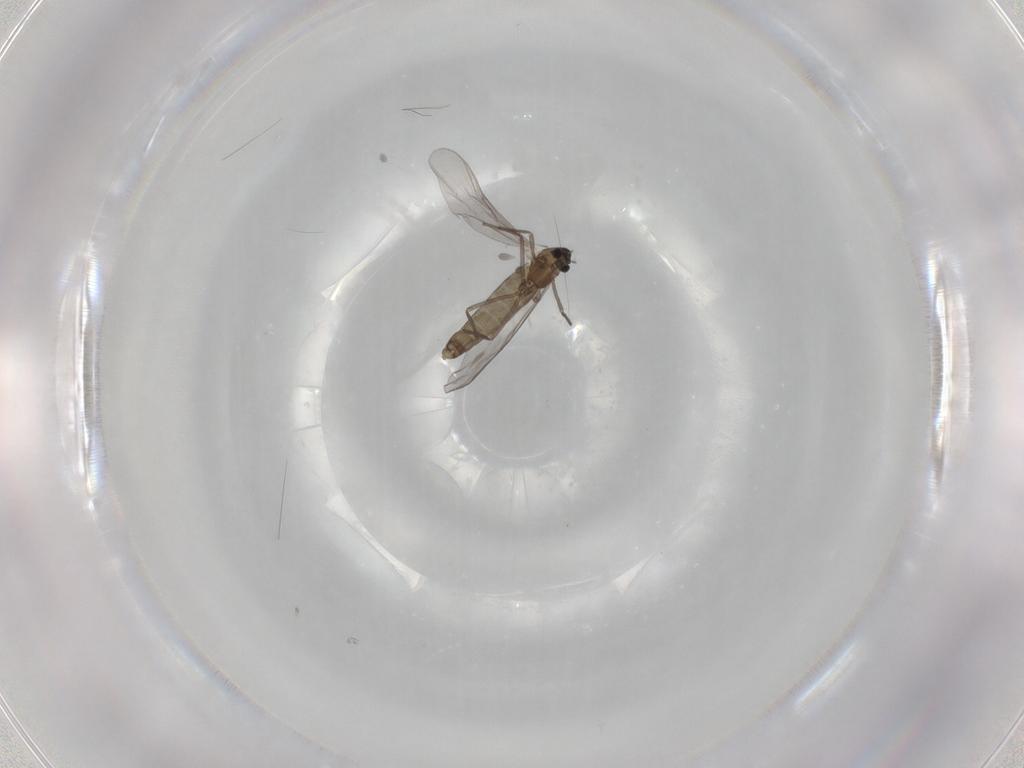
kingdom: Animalia
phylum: Arthropoda
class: Insecta
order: Diptera
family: Chironomidae
